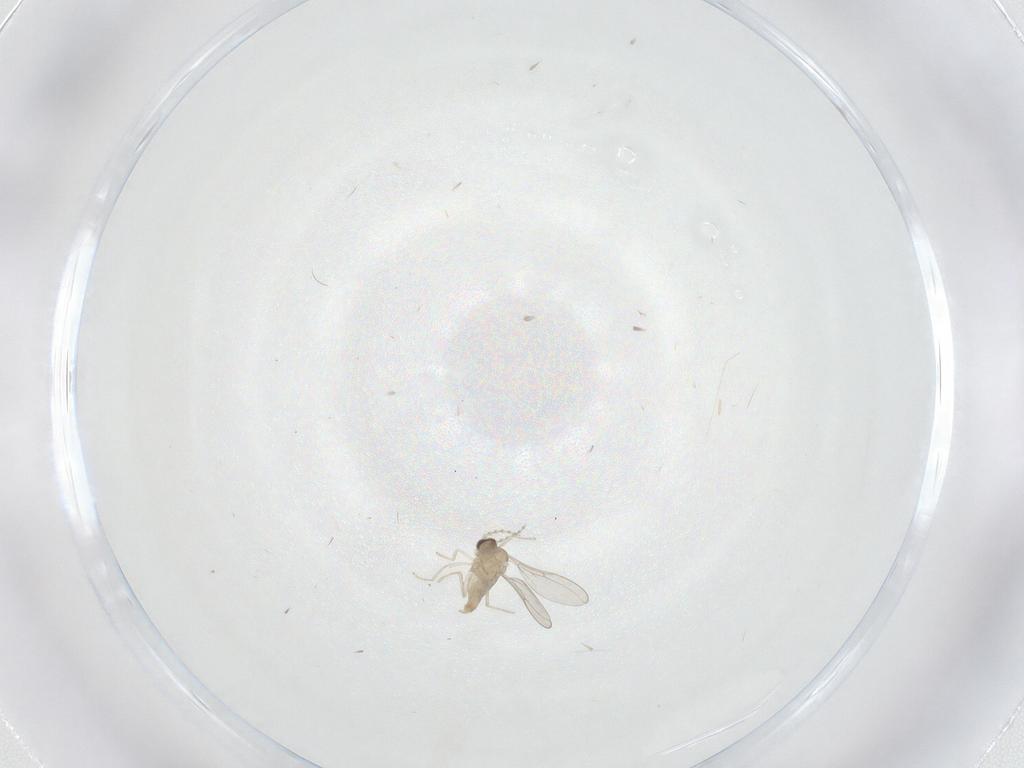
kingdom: Animalia
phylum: Arthropoda
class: Insecta
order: Diptera
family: Cecidomyiidae
